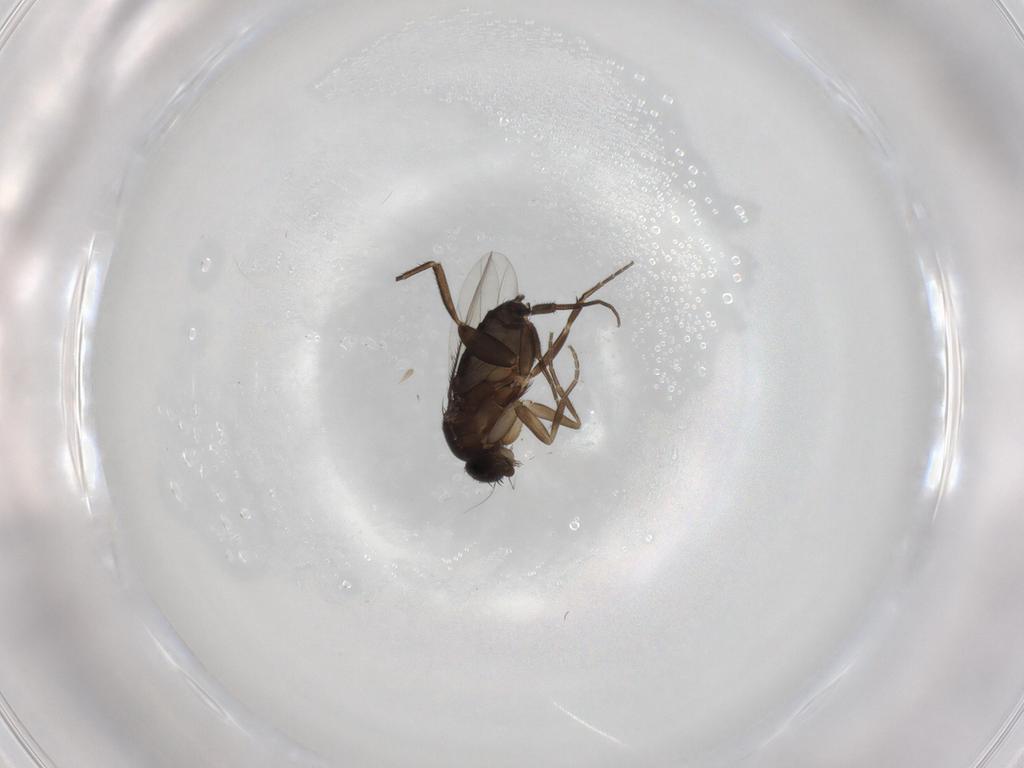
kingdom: Animalia
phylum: Arthropoda
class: Insecta
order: Diptera
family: Phoridae
